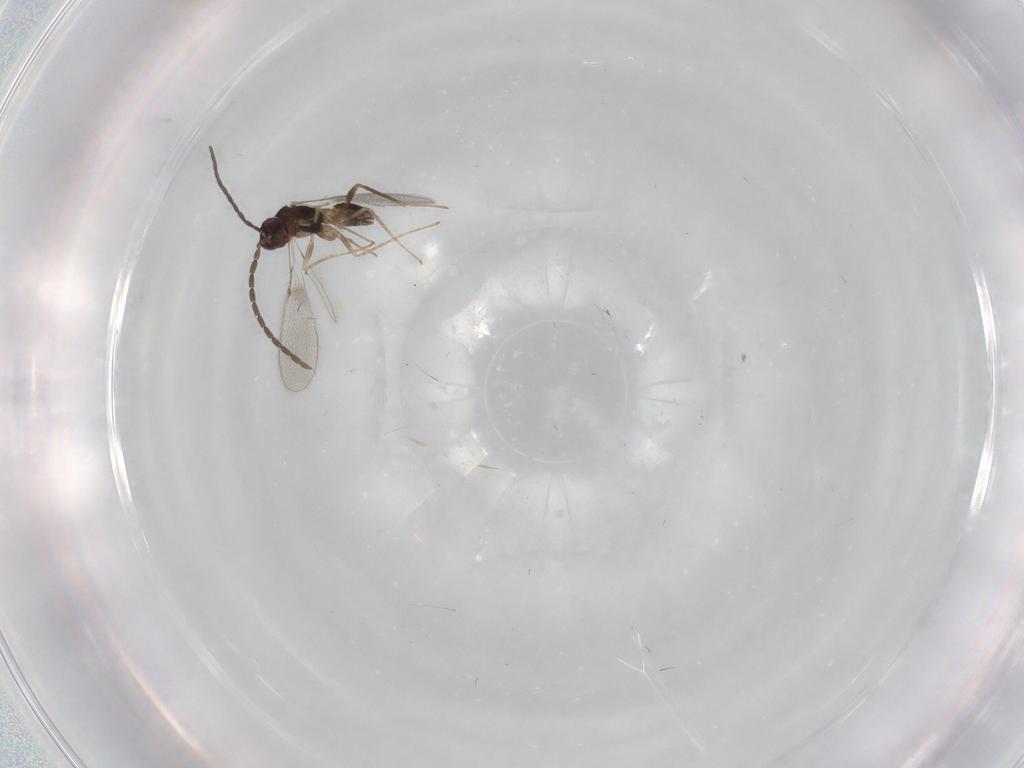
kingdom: Animalia
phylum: Arthropoda
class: Insecta
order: Hymenoptera
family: Mymaridae
